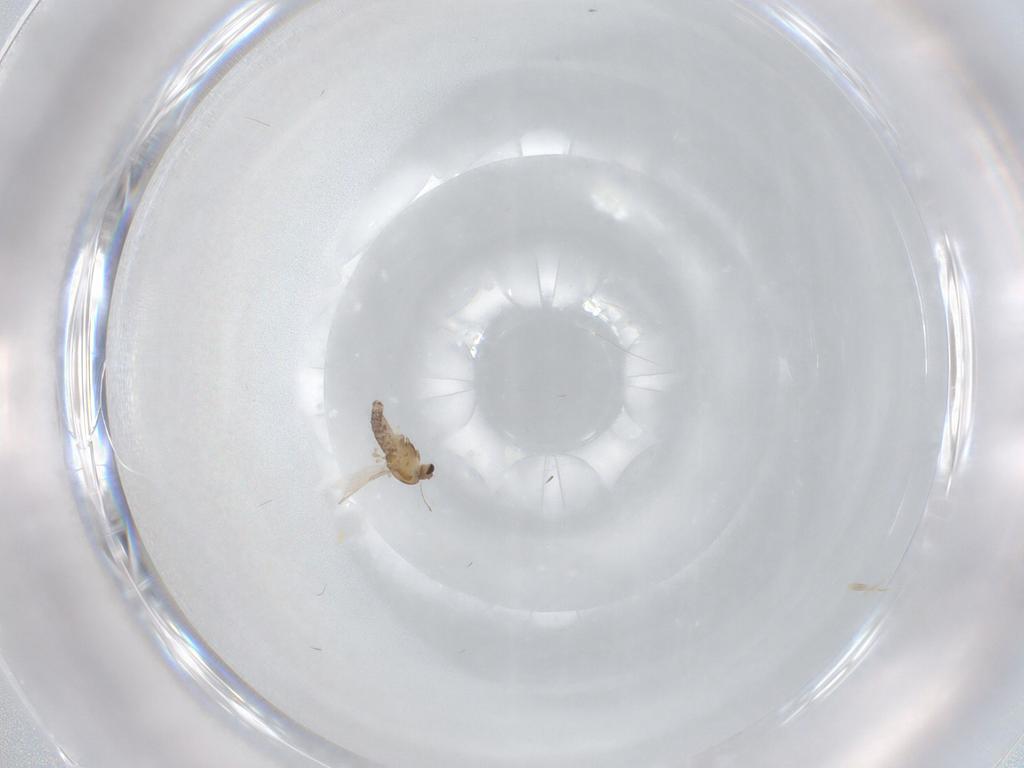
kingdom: Animalia
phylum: Arthropoda
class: Insecta
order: Diptera
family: Chironomidae
